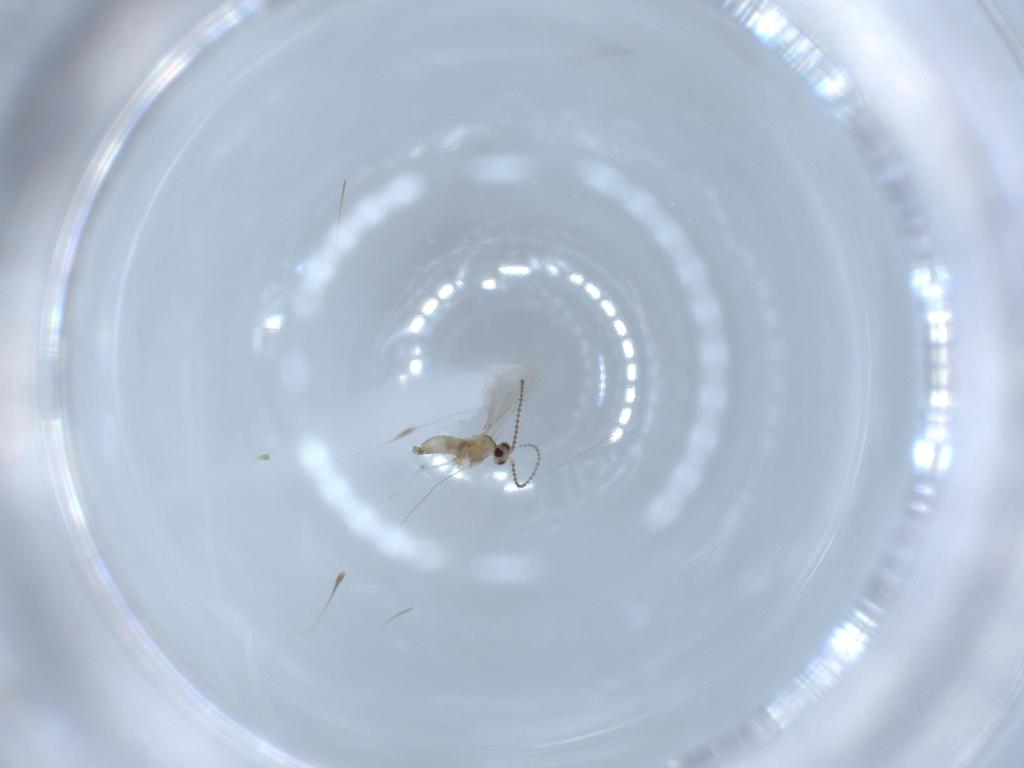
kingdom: Animalia
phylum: Arthropoda
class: Insecta
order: Diptera
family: Cecidomyiidae
